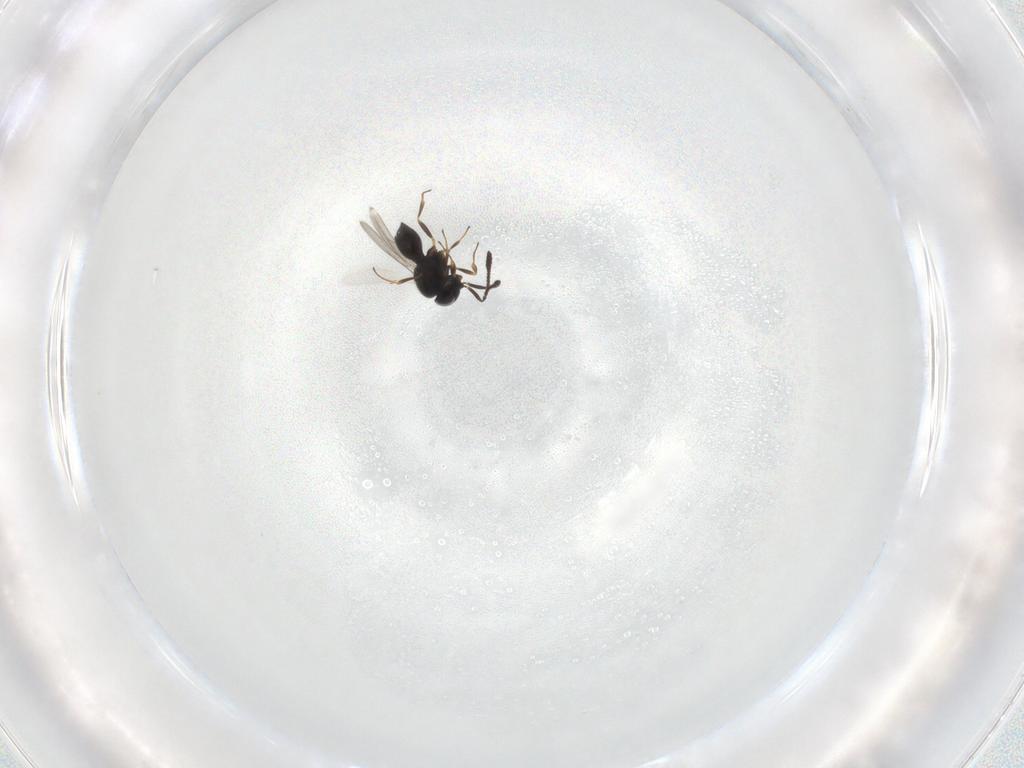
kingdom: Animalia
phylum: Arthropoda
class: Insecta
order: Hymenoptera
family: Scelionidae
